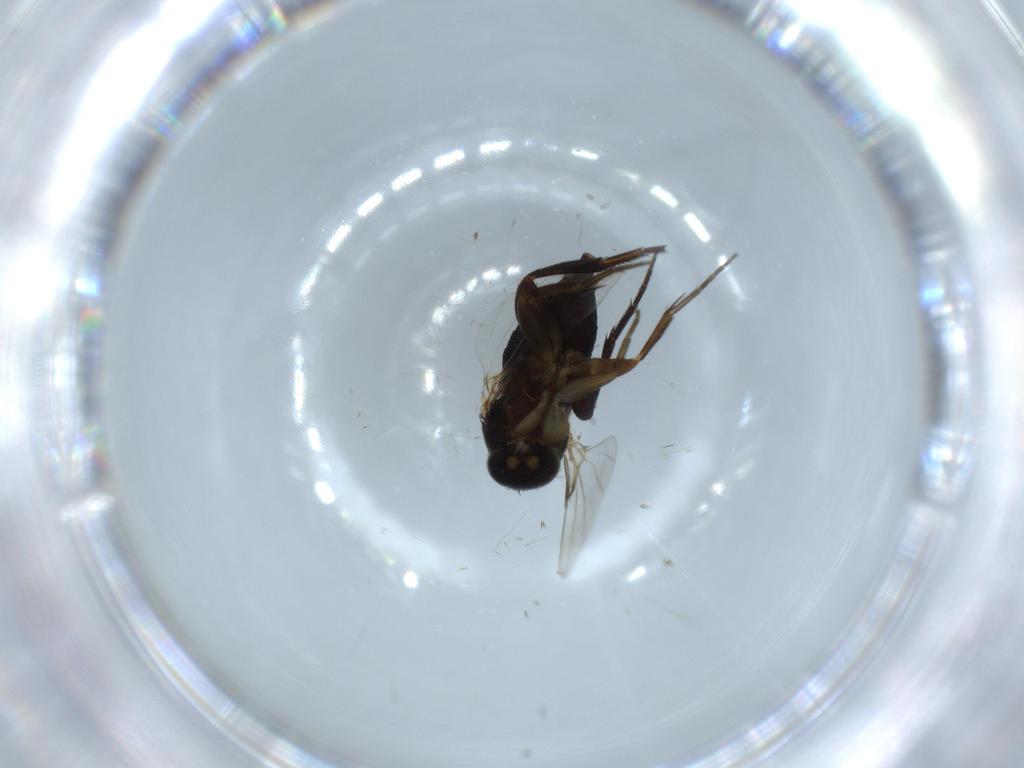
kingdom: Animalia
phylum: Arthropoda
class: Insecta
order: Diptera
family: Phoridae
